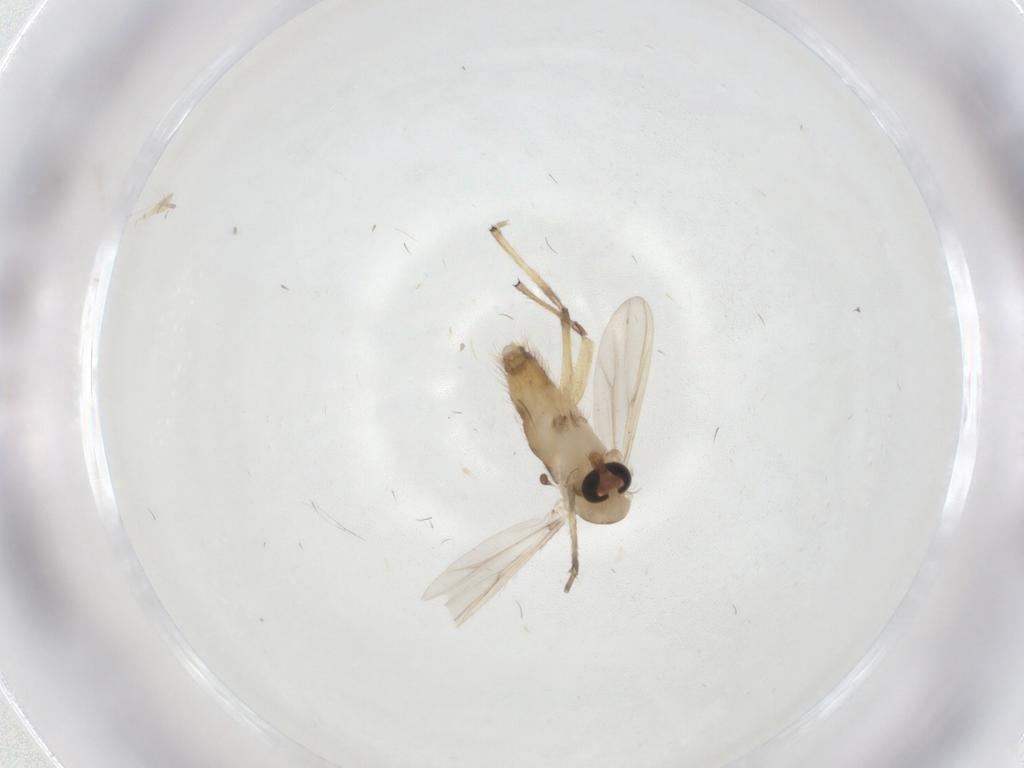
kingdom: Animalia
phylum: Arthropoda
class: Insecta
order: Diptera
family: Chironomidae
